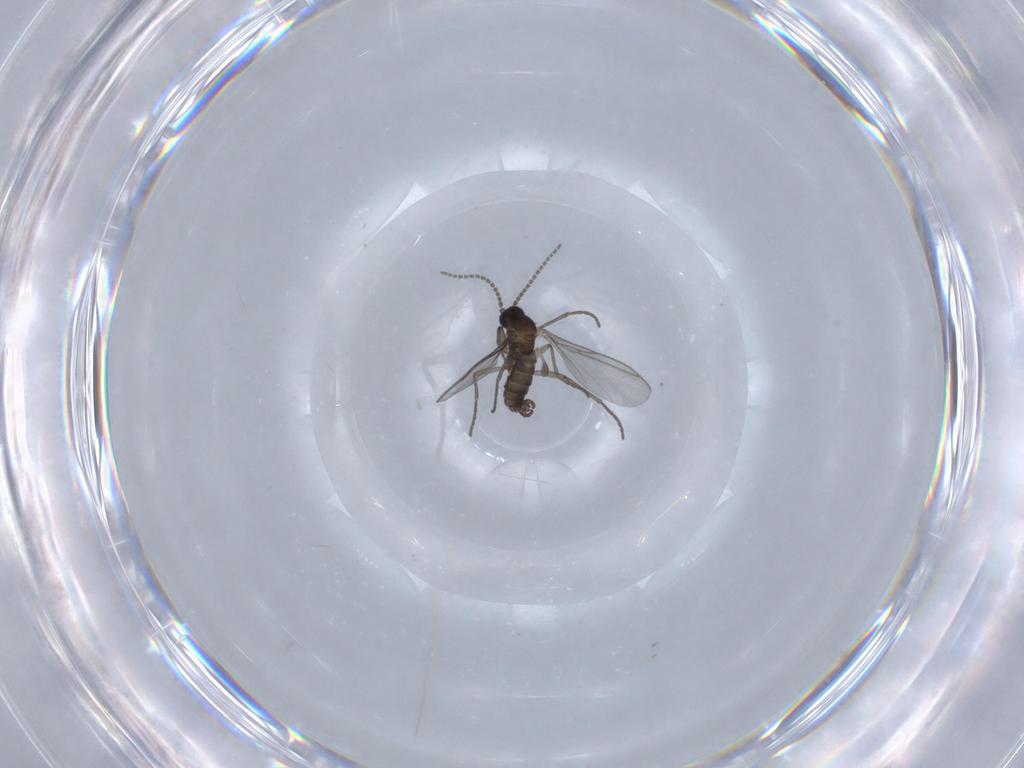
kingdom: Animalia
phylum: Arthropoda
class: Insecta
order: Diptera
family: Cecidomyiidae
